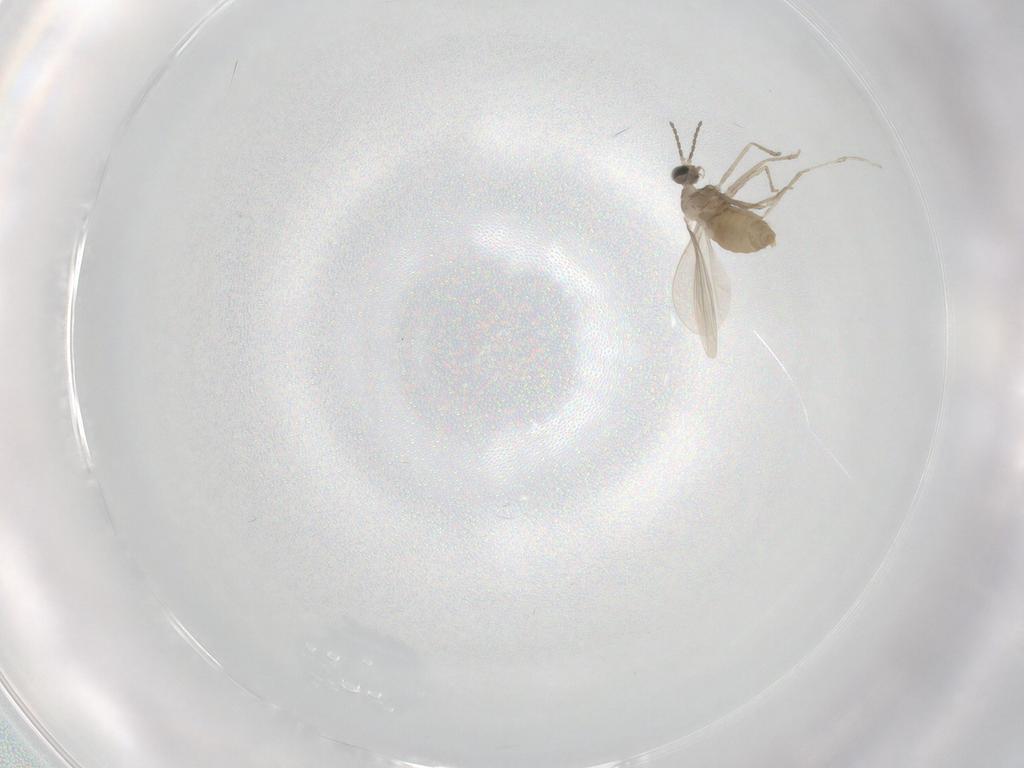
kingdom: Animalia
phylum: Arthropoda
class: Insecta
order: Diptera
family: Cecidomyiidae
